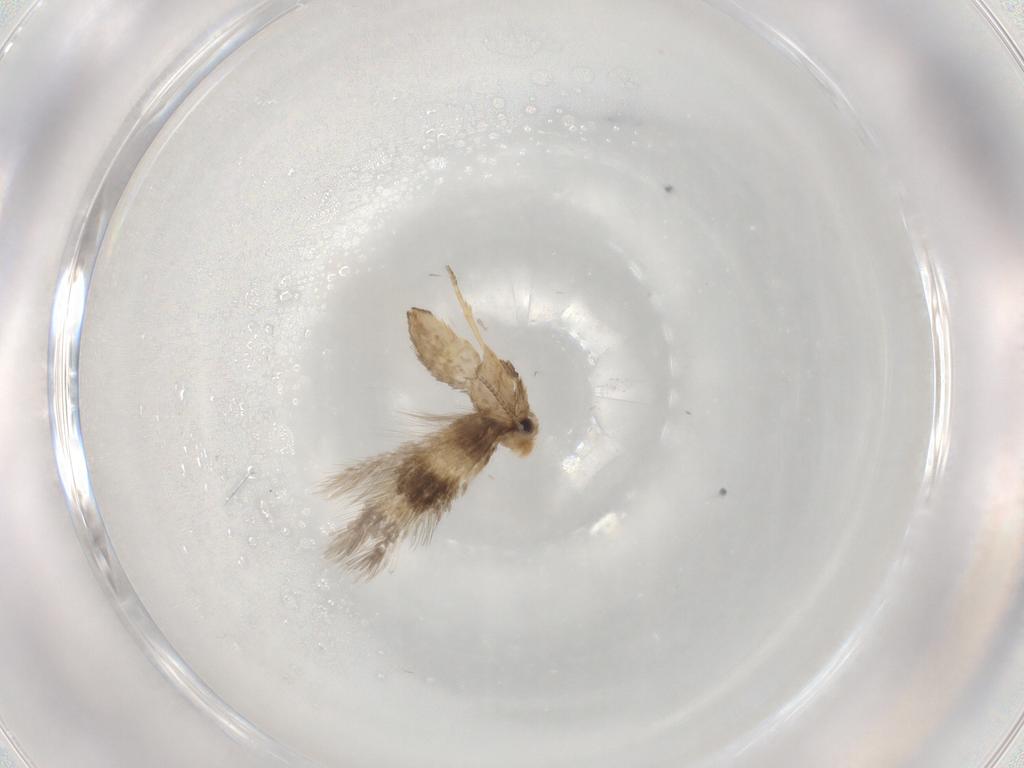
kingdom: Animalia
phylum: Arthropoda
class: Insecta
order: Lepidoptera
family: Nepticulidae
